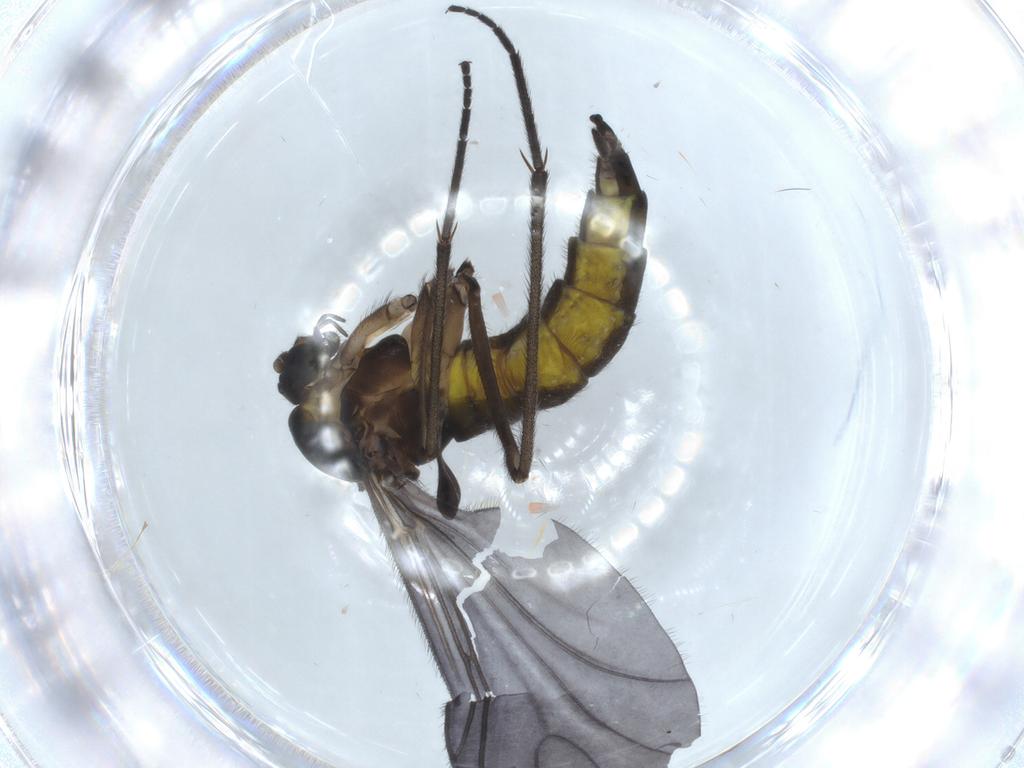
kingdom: Animalia
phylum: Arthropoda
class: Insecta
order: Diptera
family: Sciaridae
